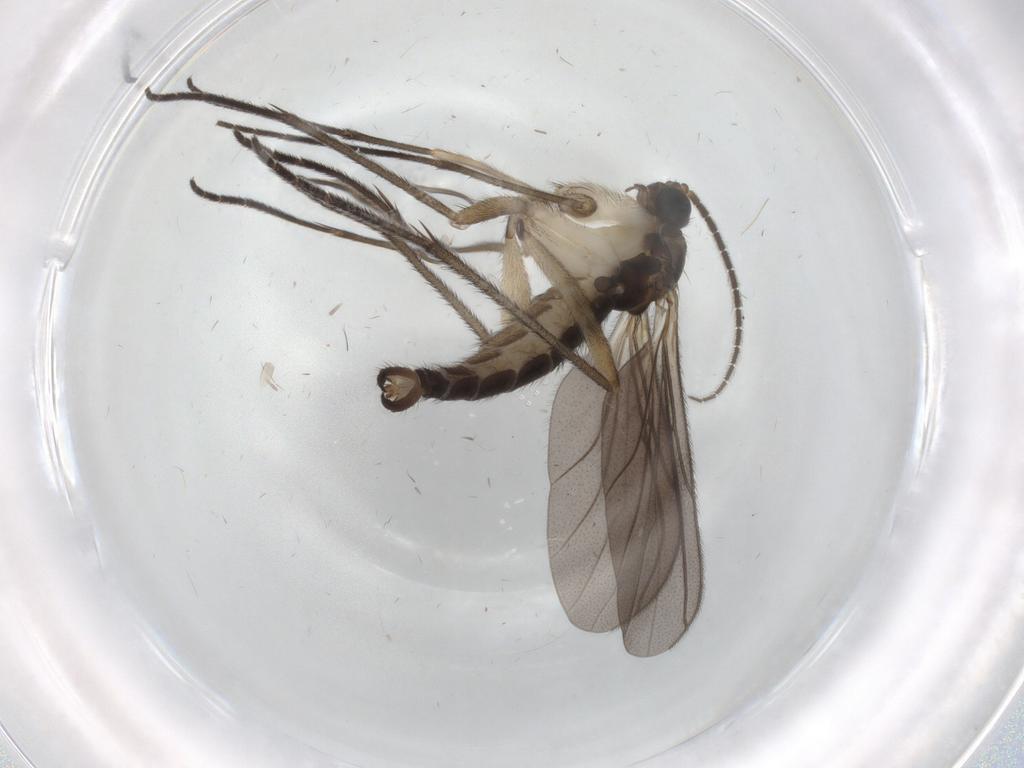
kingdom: Animalia
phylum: Arthropoda
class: Insecta
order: Diptera
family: Sciaridae
